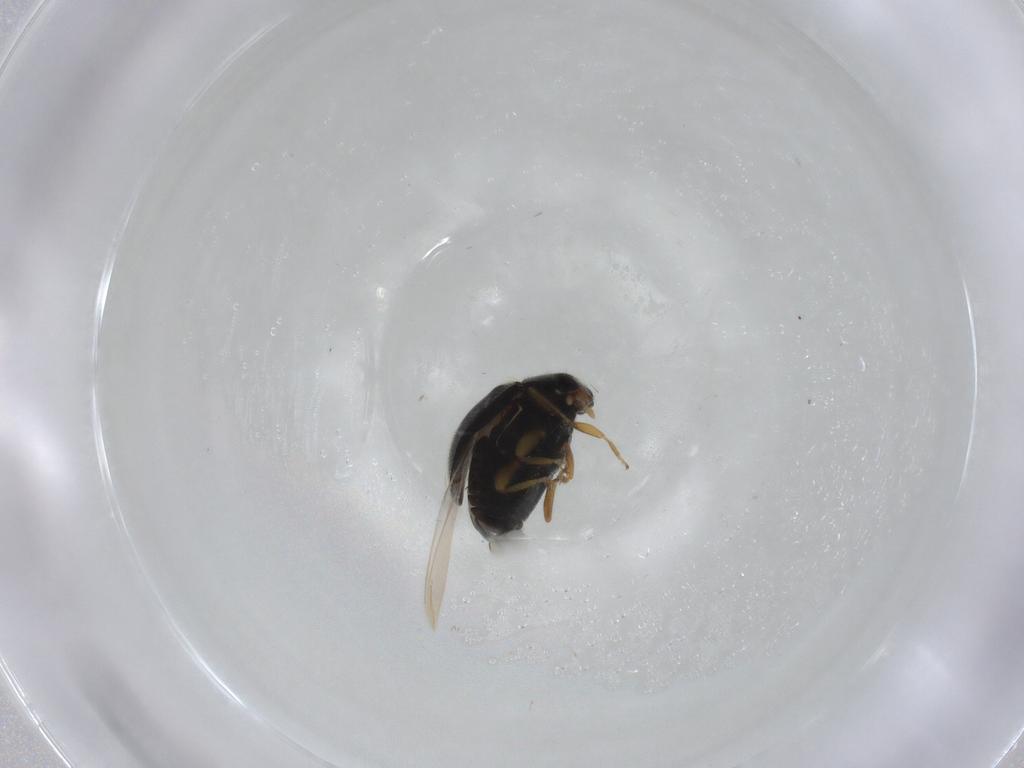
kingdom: Animalia
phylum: Arthropoda
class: Insecta
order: Coleoptera
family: Coccinellidae
